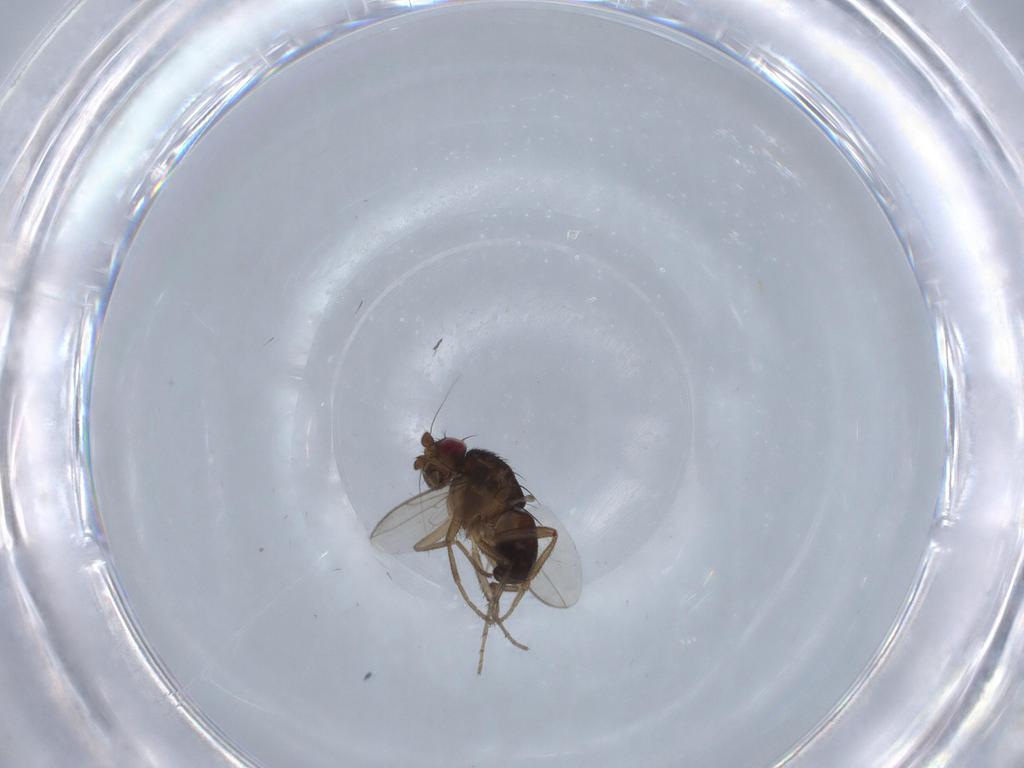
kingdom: Animalia
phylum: Arthropoda
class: Insecta
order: Diptera
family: Sphaeroceridae
